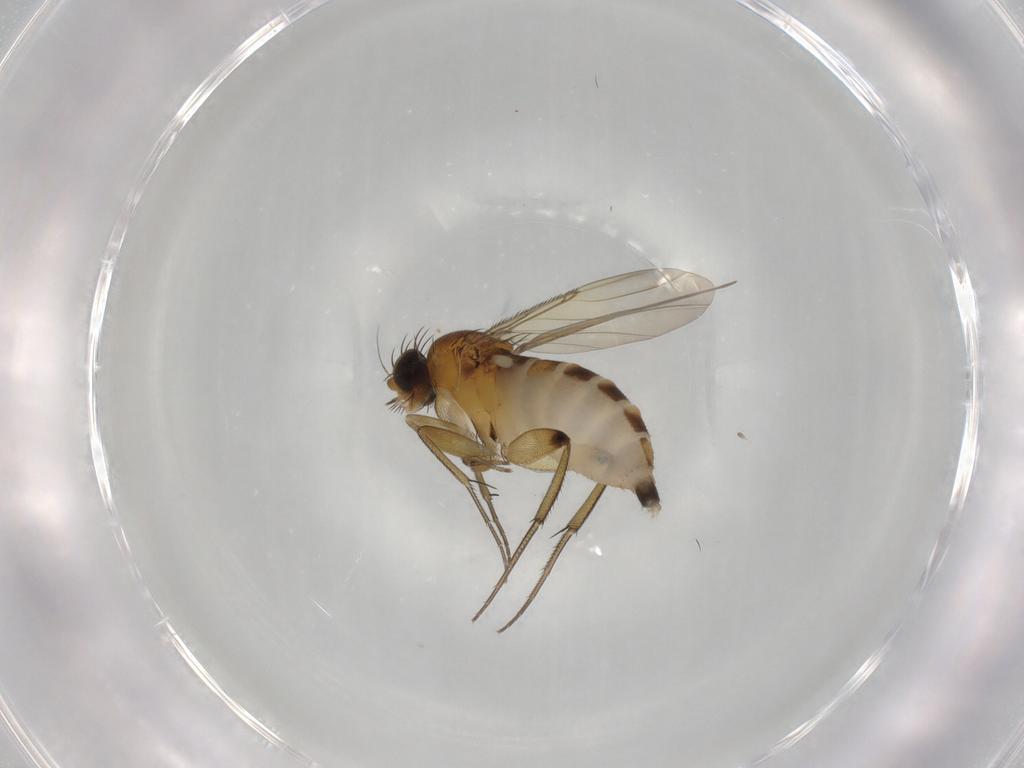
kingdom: Animalia
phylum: Arthropoda
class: Insecta
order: Diptera
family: Phoridae
